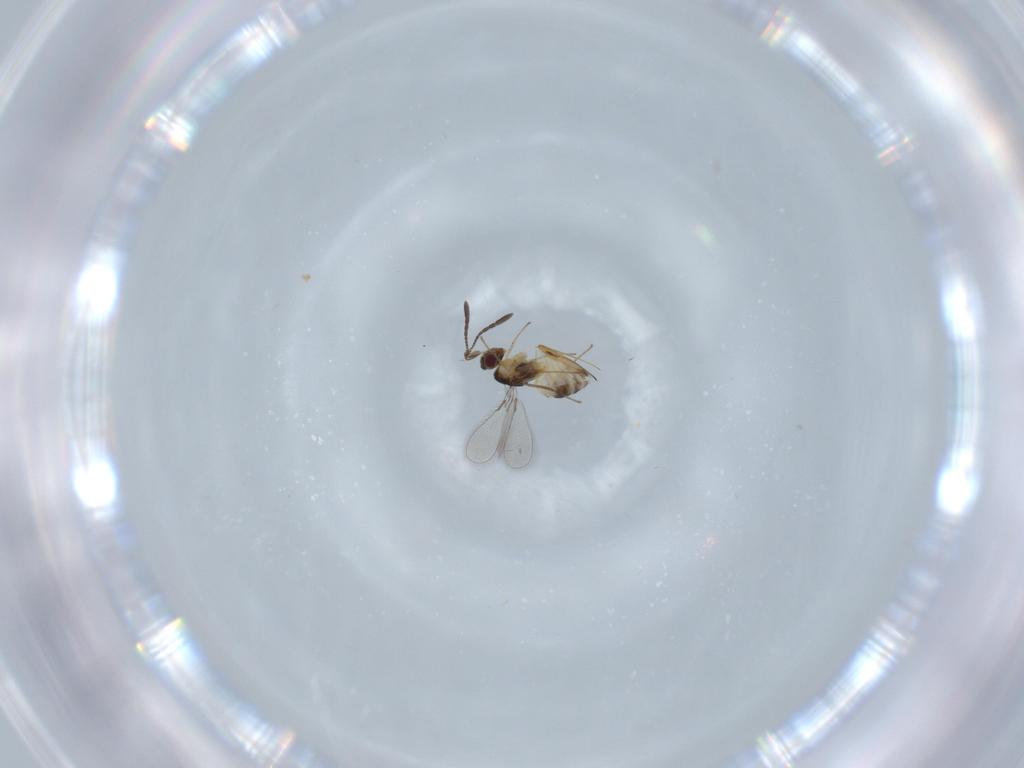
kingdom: Animalia
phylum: Arthropoda
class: Insecta
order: Hymenoptera
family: Mymaridae
